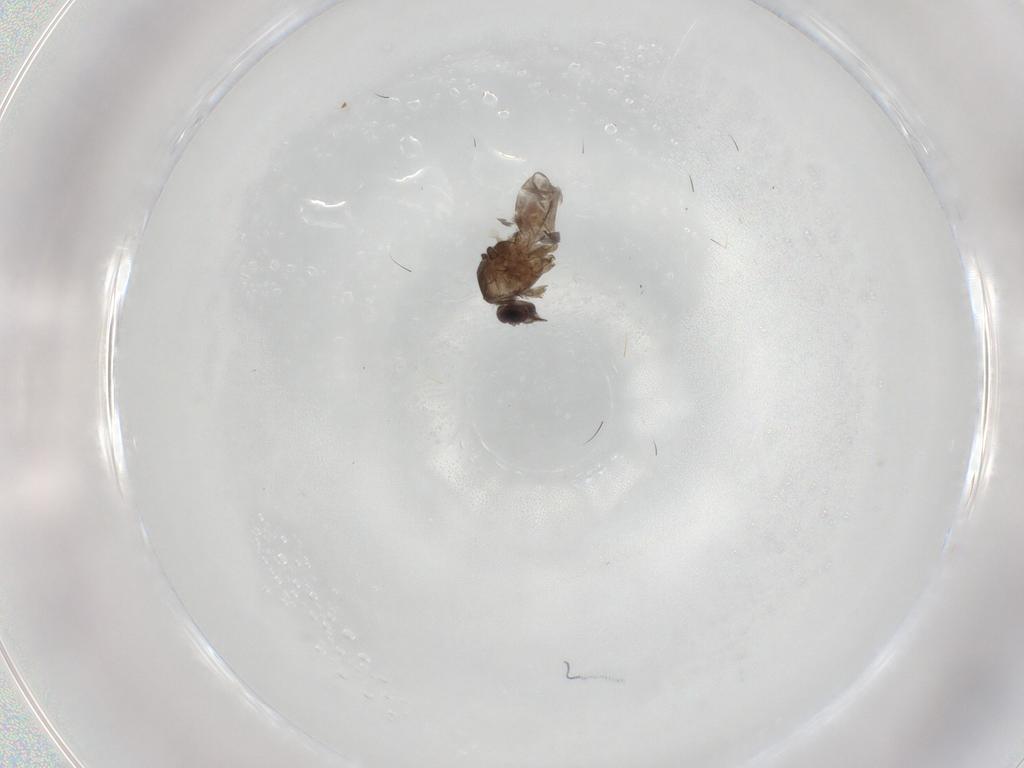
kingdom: Animalia
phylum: Arthropoda
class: Insecta
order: Diptera
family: Cecidomyiidae
